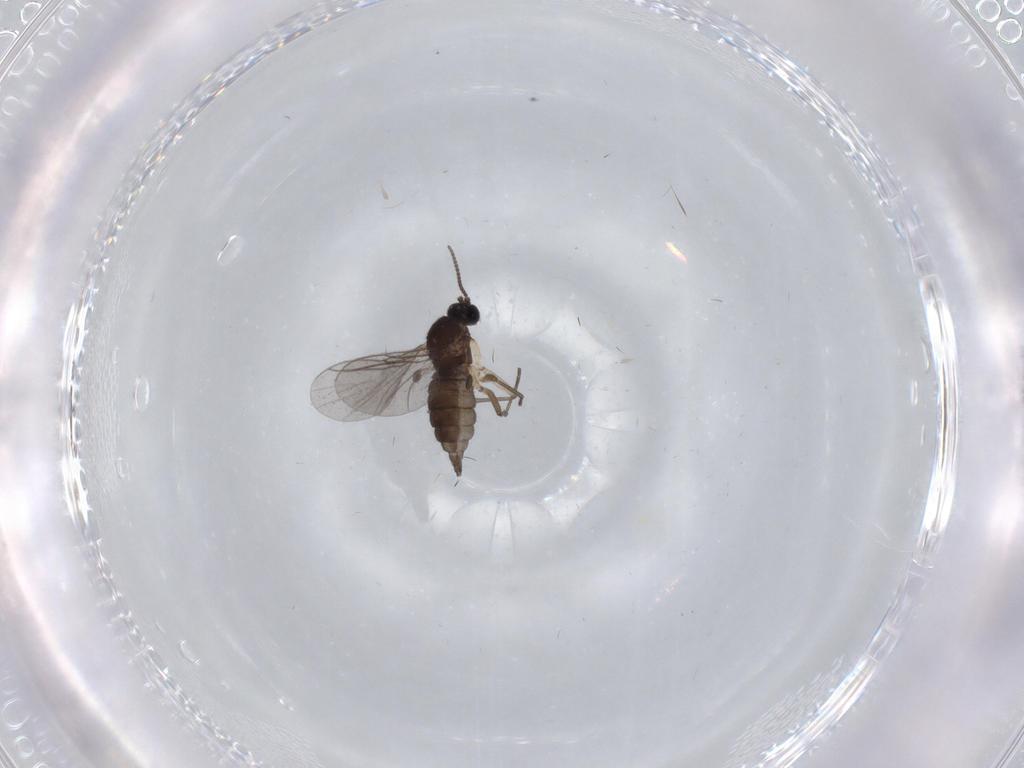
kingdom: Animalia
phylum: Arthropoda
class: Insecta
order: Diptera
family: Sciaridae
